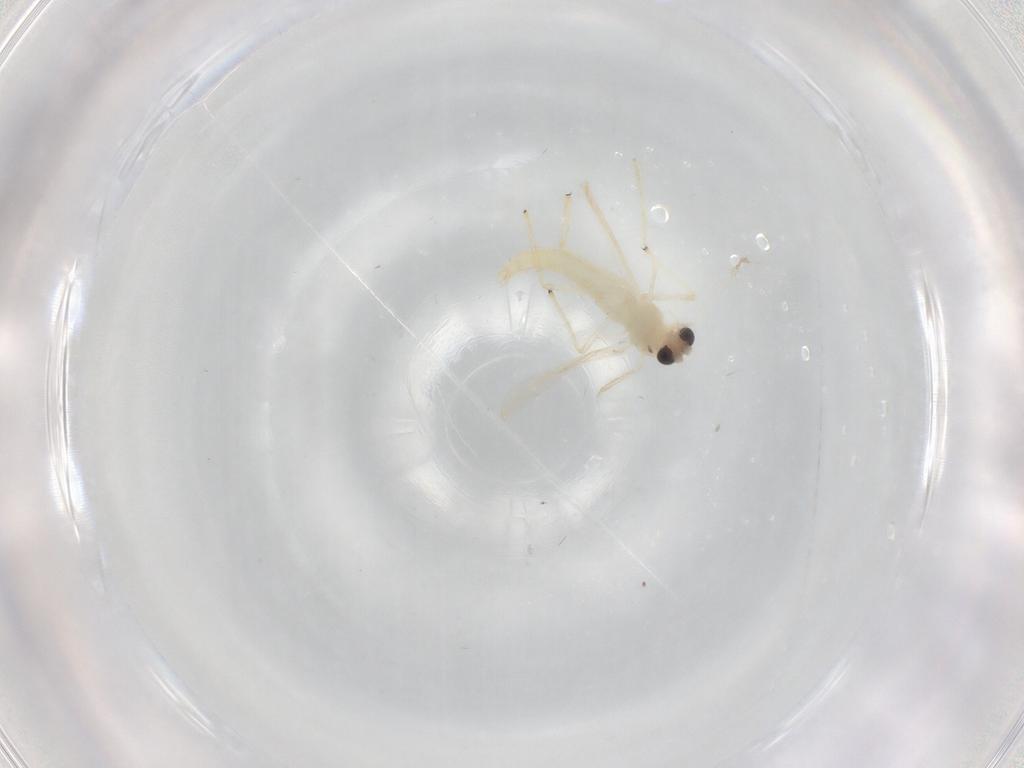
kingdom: Animalia
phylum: Arthropoda
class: Insecta
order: Diptera
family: Cecidomyiidae
